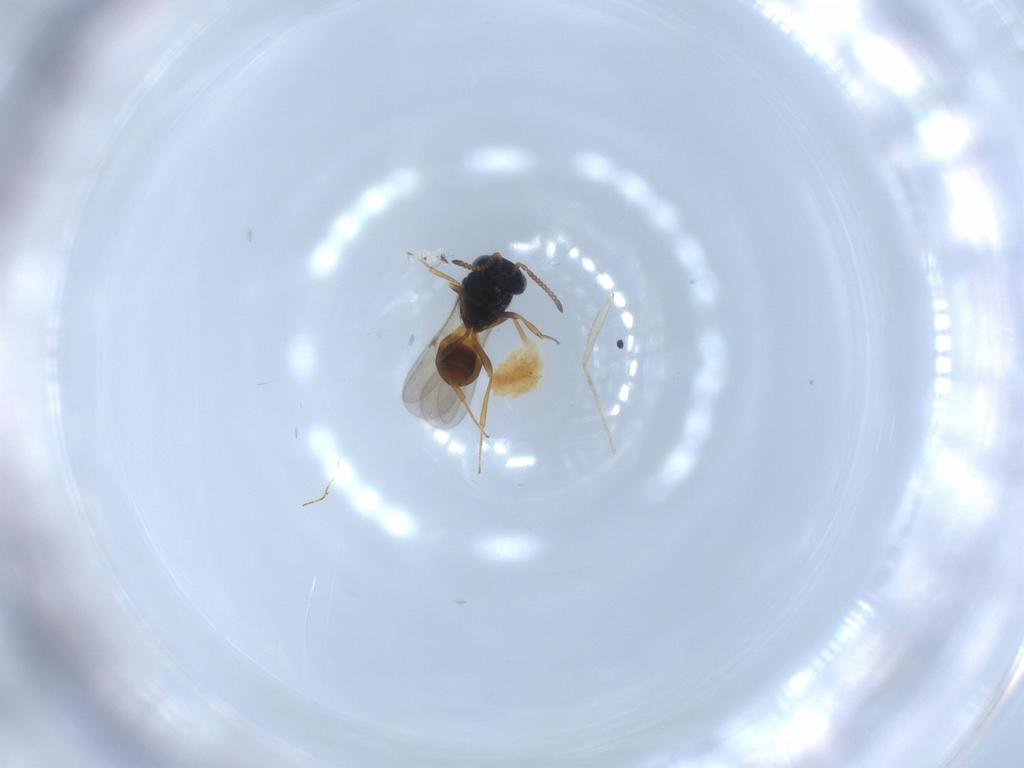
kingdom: Animalia
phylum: Arthropoda
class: Insecta
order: Hymenoptera
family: Scelionidae
